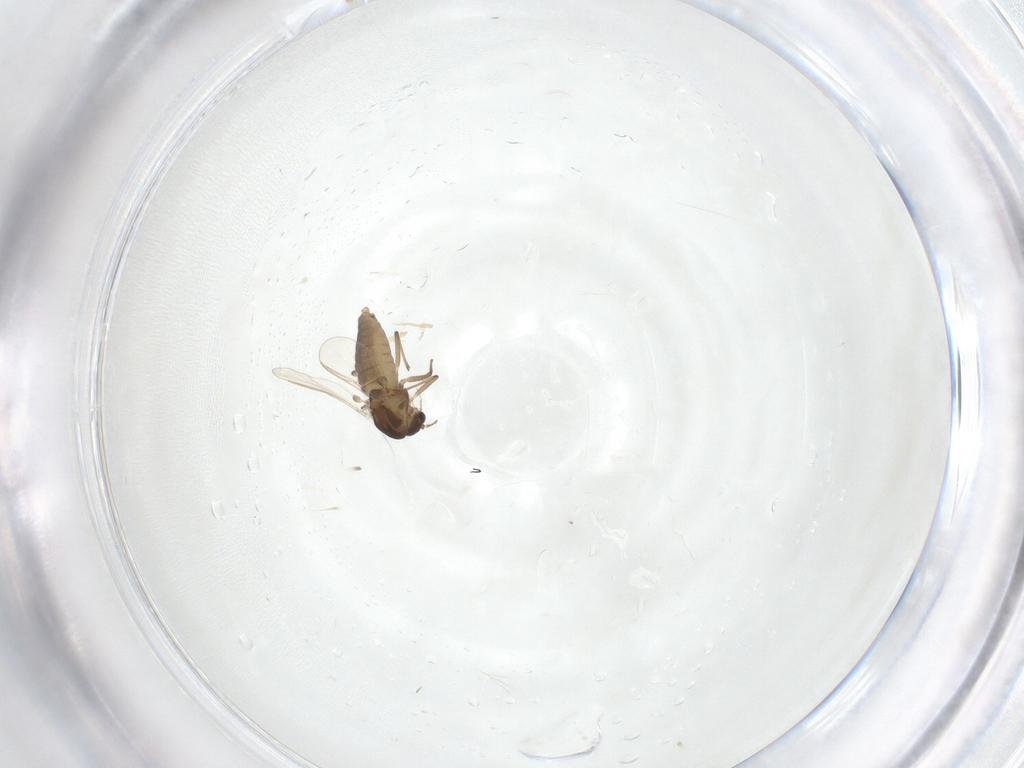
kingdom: Animalia
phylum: Arthropoda
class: Insecta
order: Diptera
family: Chironomidae
